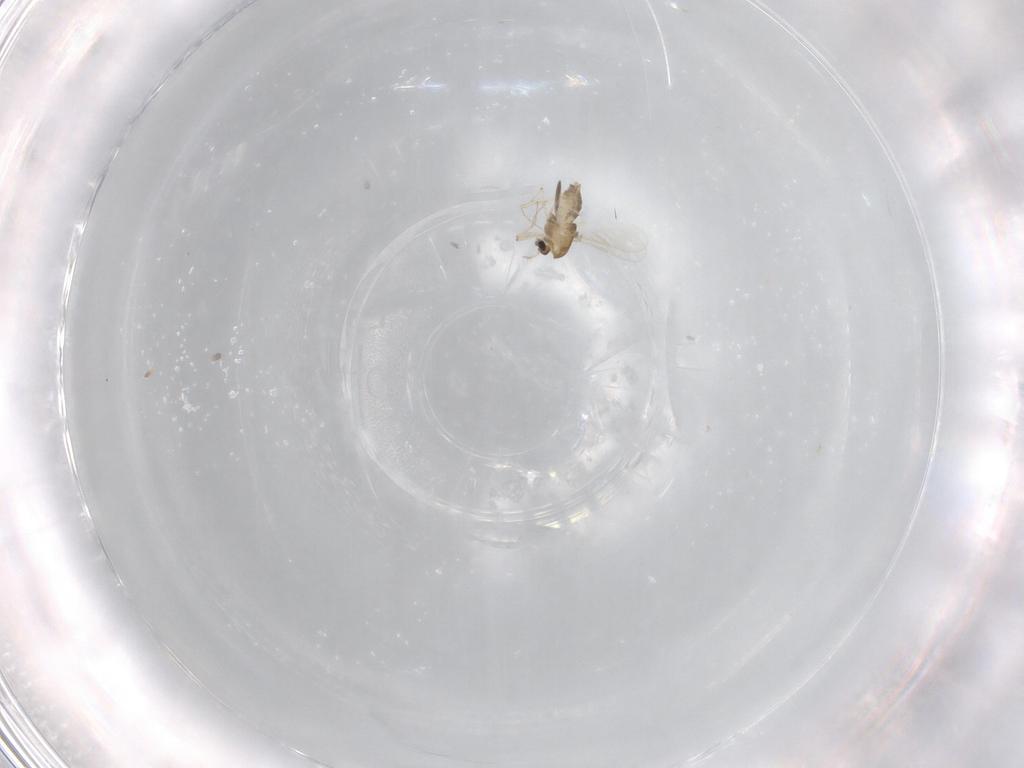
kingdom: Animalia
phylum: Arthropoda
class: Insecta
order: Diptera
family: Chironomidae
